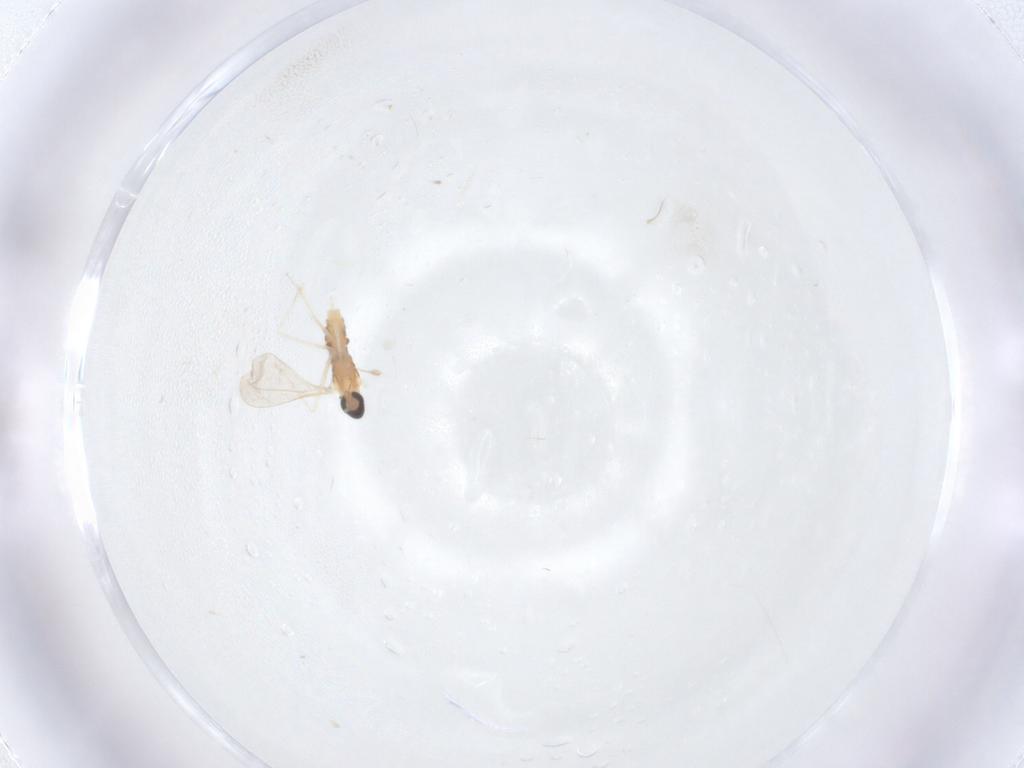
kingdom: Animalia
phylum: Arthropoda
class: Insecta
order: Diptera
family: Cecidomyiidae
